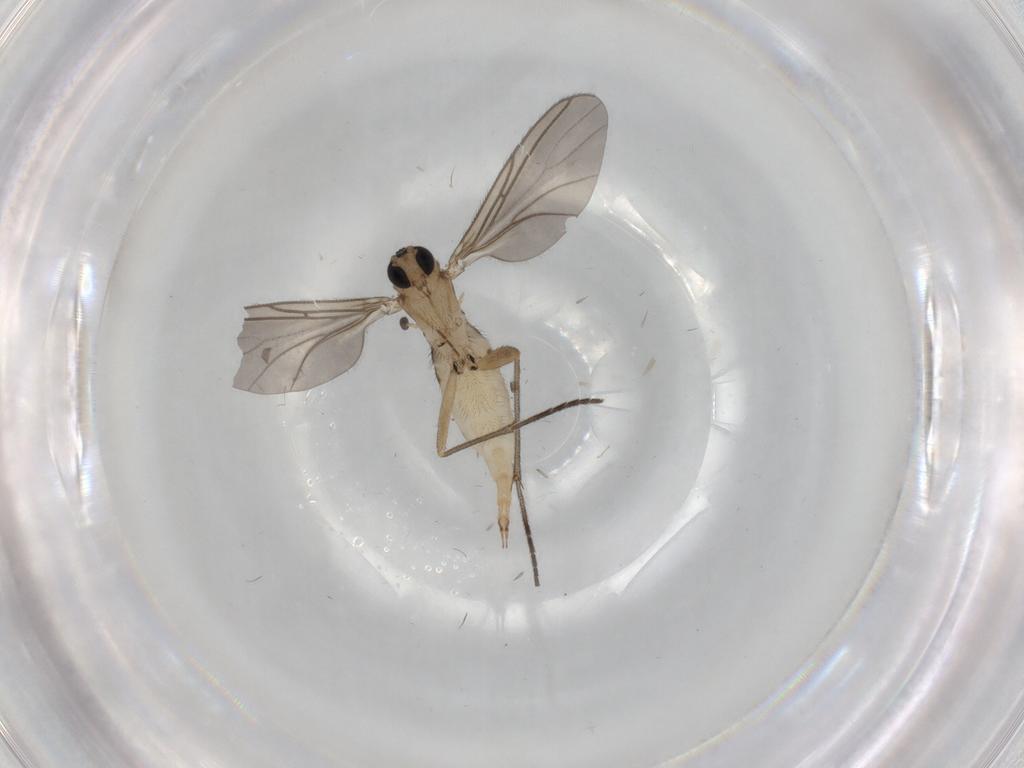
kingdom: Animalia
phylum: Arthropoda
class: Insecta
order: Diptera
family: Sciaridae
